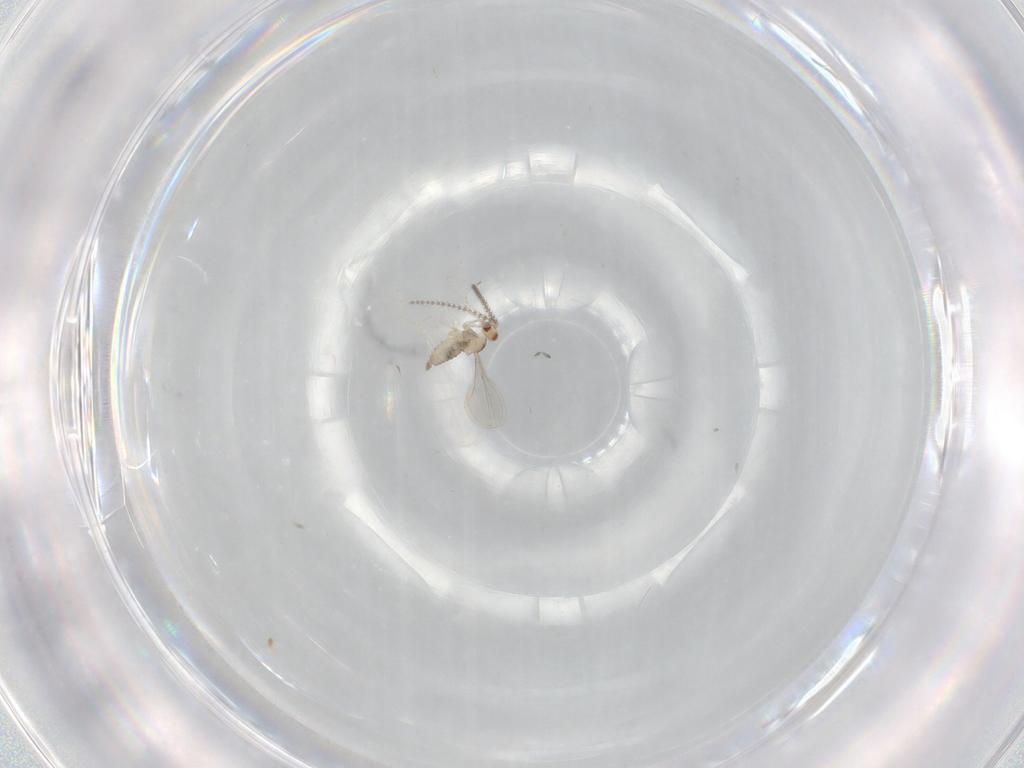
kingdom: Animalia
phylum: Arthropoda
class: Insecta
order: Diptera
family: Cecidomyiidae
